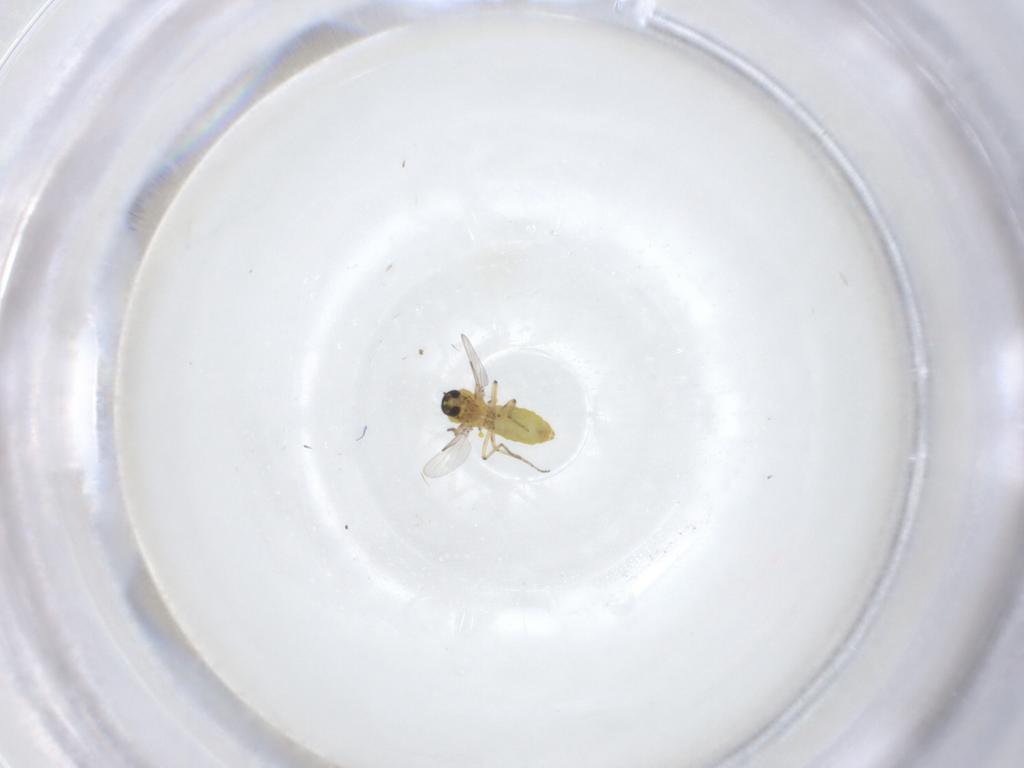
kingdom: Animalia
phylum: Arthropoda
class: Insecta
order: Diptera
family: Ceratopogonidae
